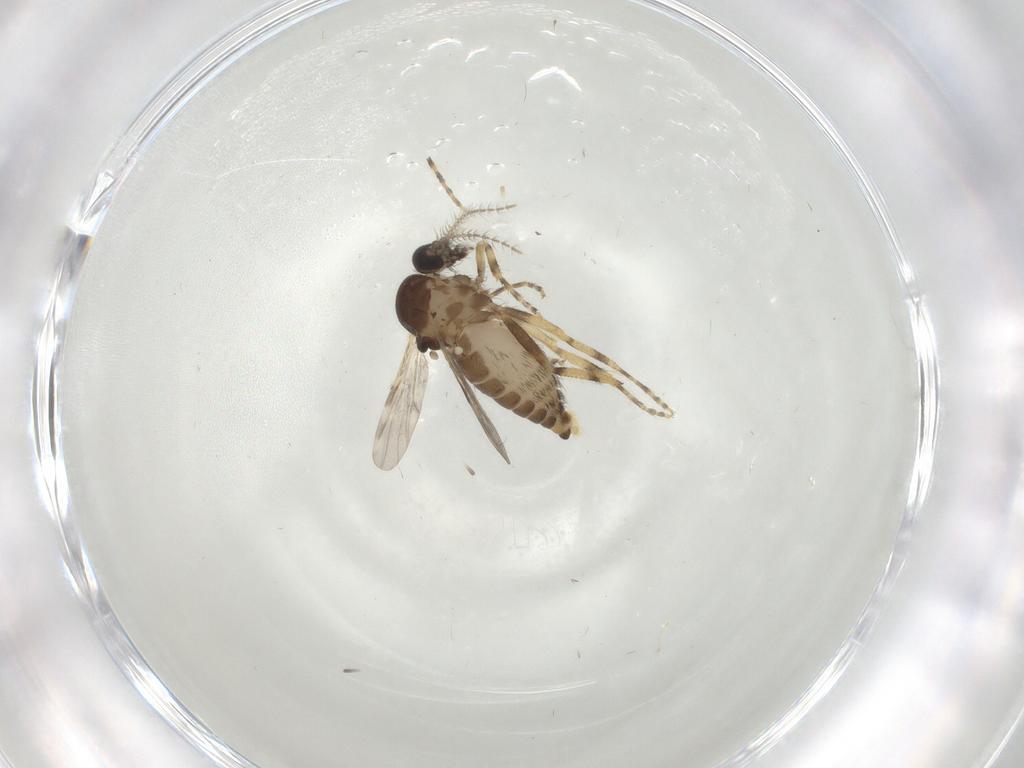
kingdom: Animalia
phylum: Arthropoda
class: Insecta
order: Diptera
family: Ceratopogonidae
